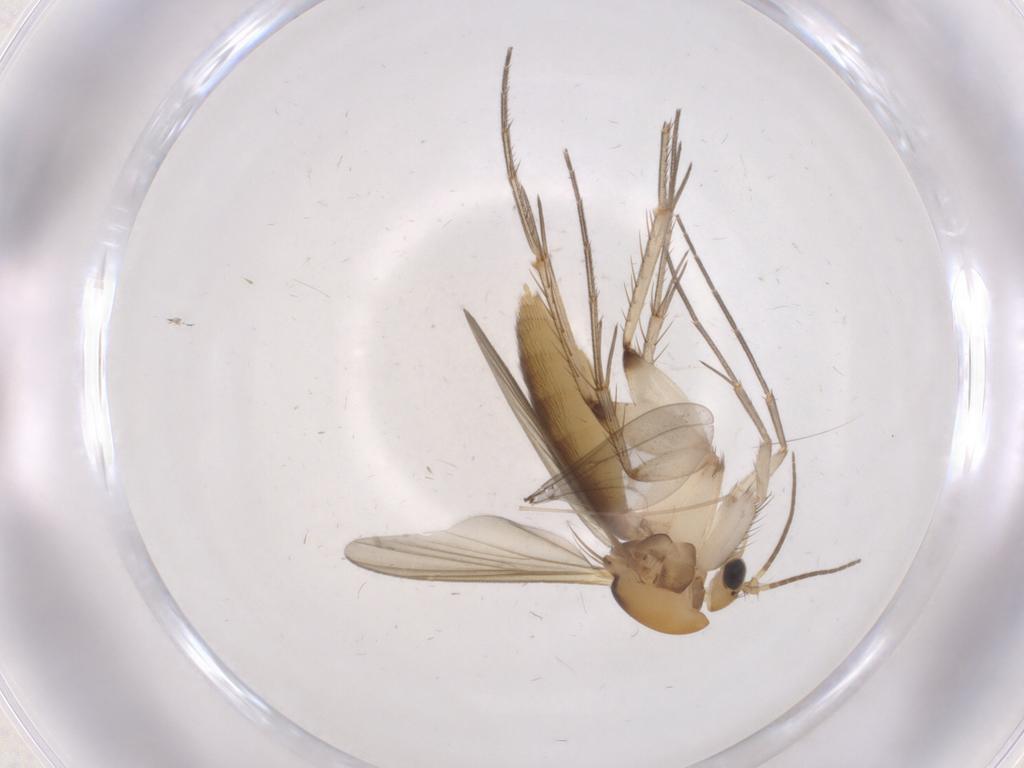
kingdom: Animalia
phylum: Arthropoda
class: Insecta
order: Diptera
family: Mycetophilidae
